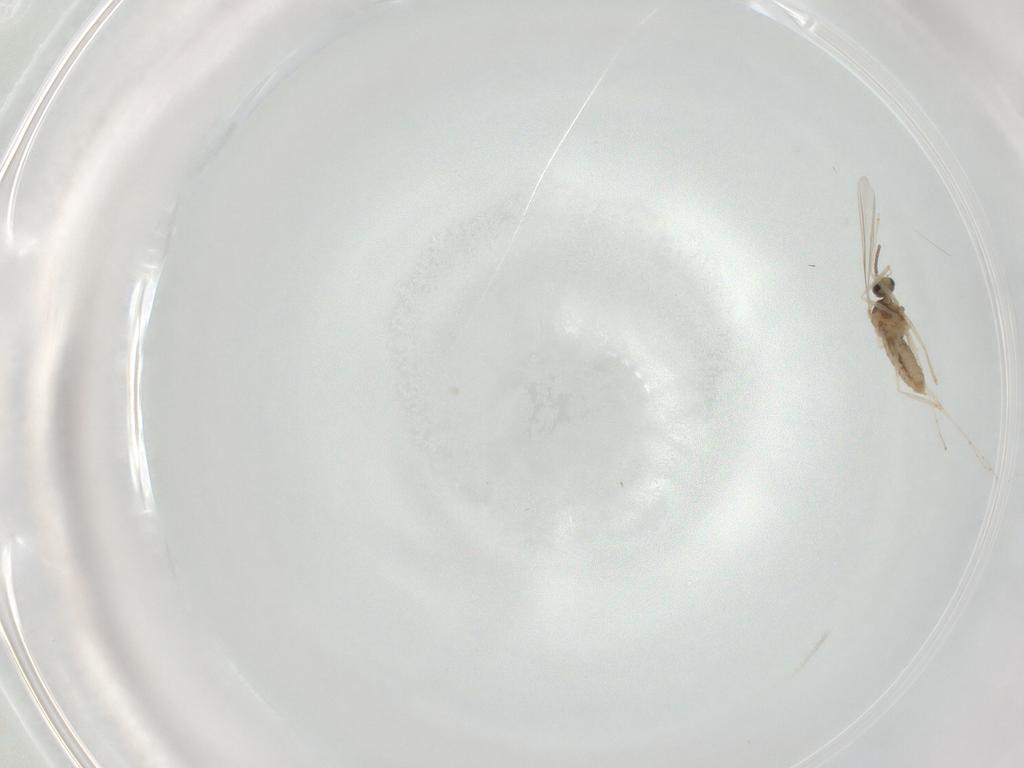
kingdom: Animalia
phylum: Arthropoda
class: Insecta
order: Diptera
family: Cecidomyiidae
